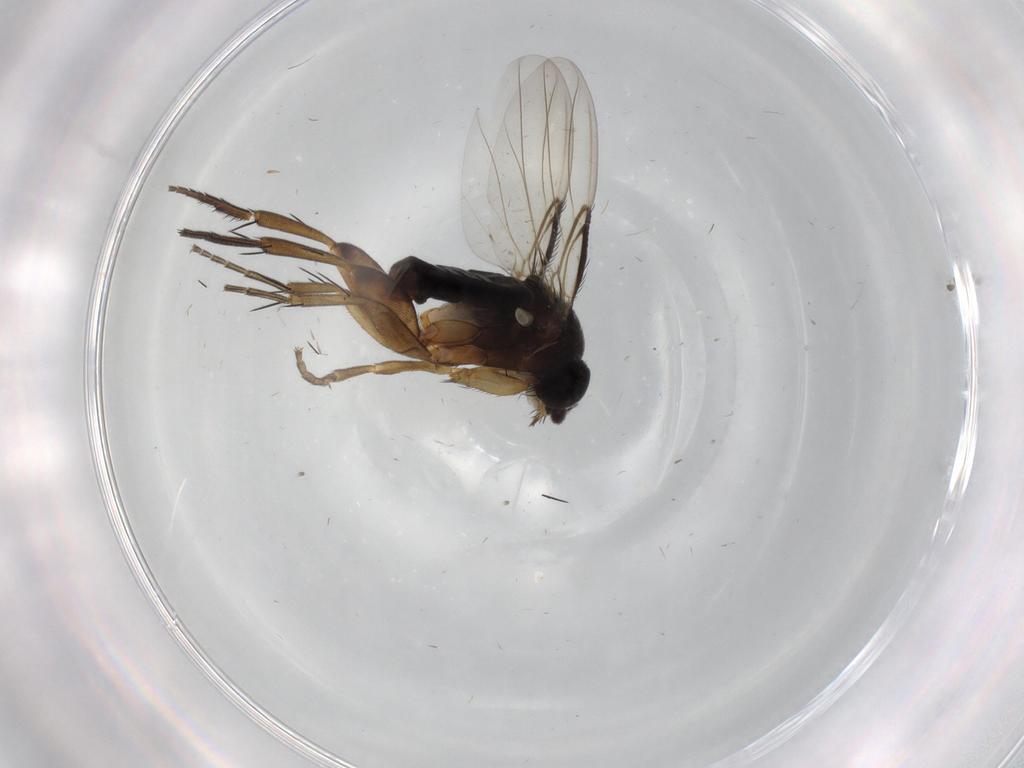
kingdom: Animalia
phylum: Arthropoda
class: Insecta
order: Diptera
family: Phoridae
